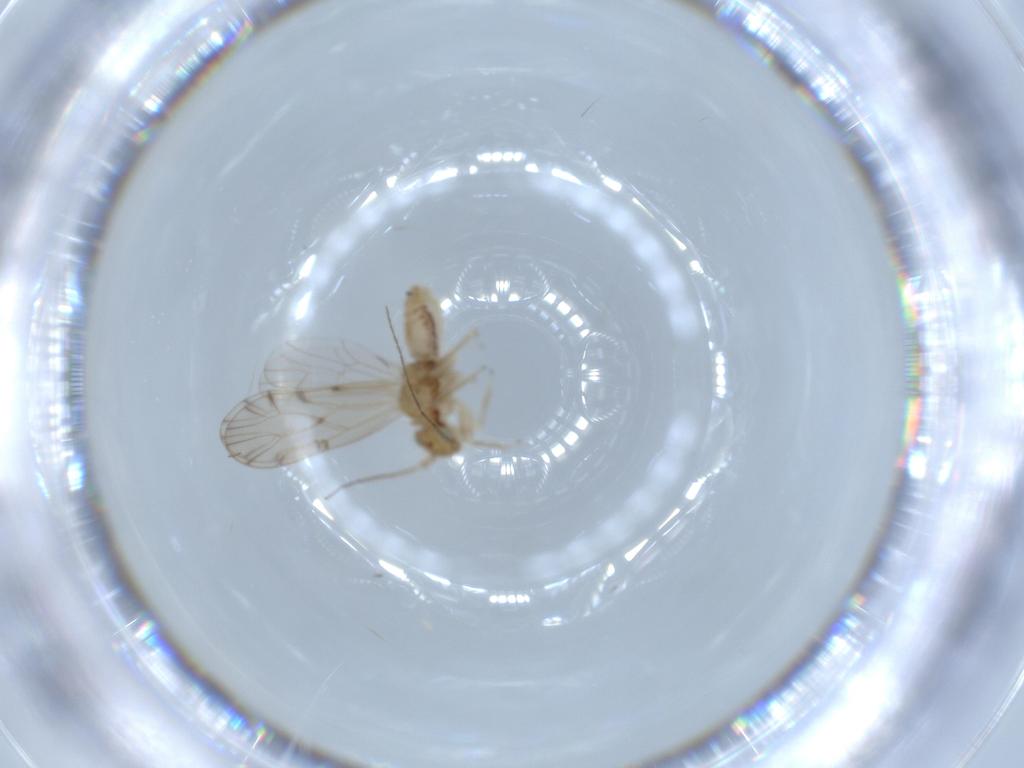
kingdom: Animalia
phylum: Arthropoda
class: Insecta
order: Psocodea
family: Ectopsocidae
